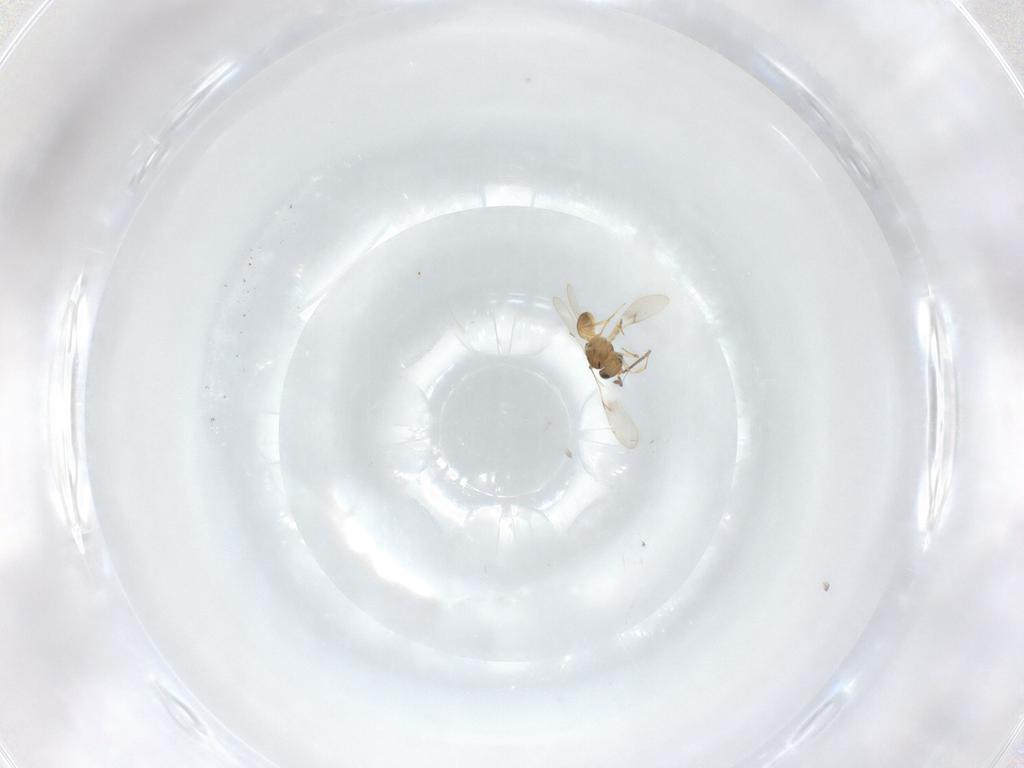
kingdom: Animalia
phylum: Arthropoda
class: Insecta
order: Hymenoptera
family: Scelionidae
